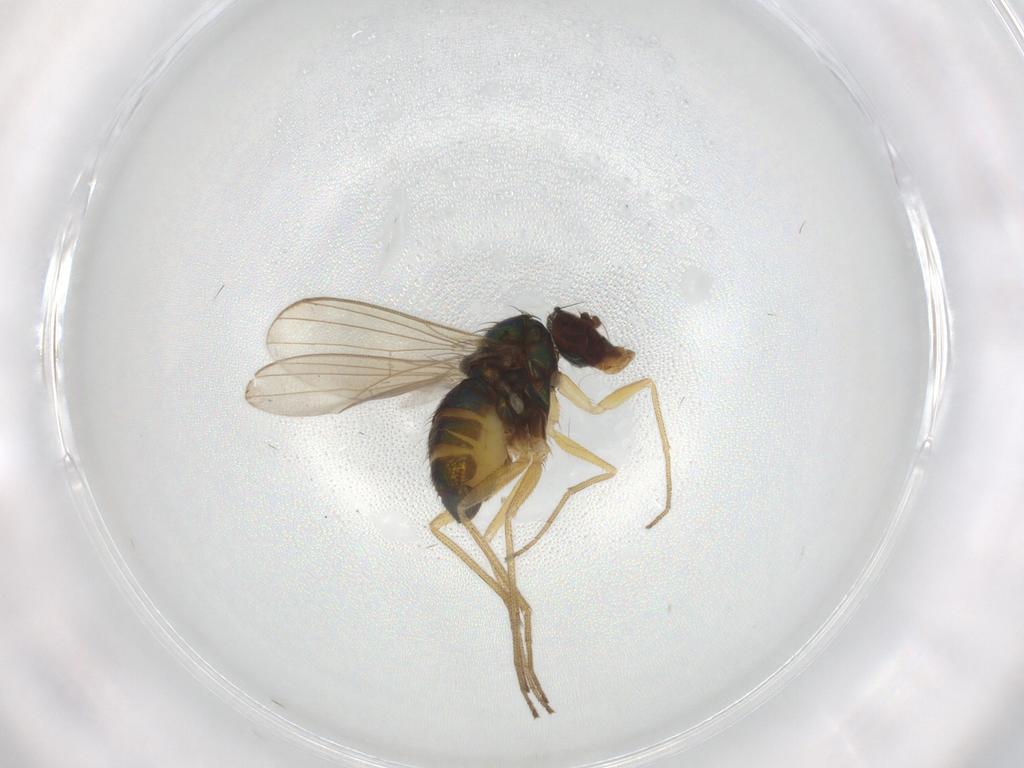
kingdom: Animalia
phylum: Arthropoda
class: Insecta
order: Diptera
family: Dolichopodidae
